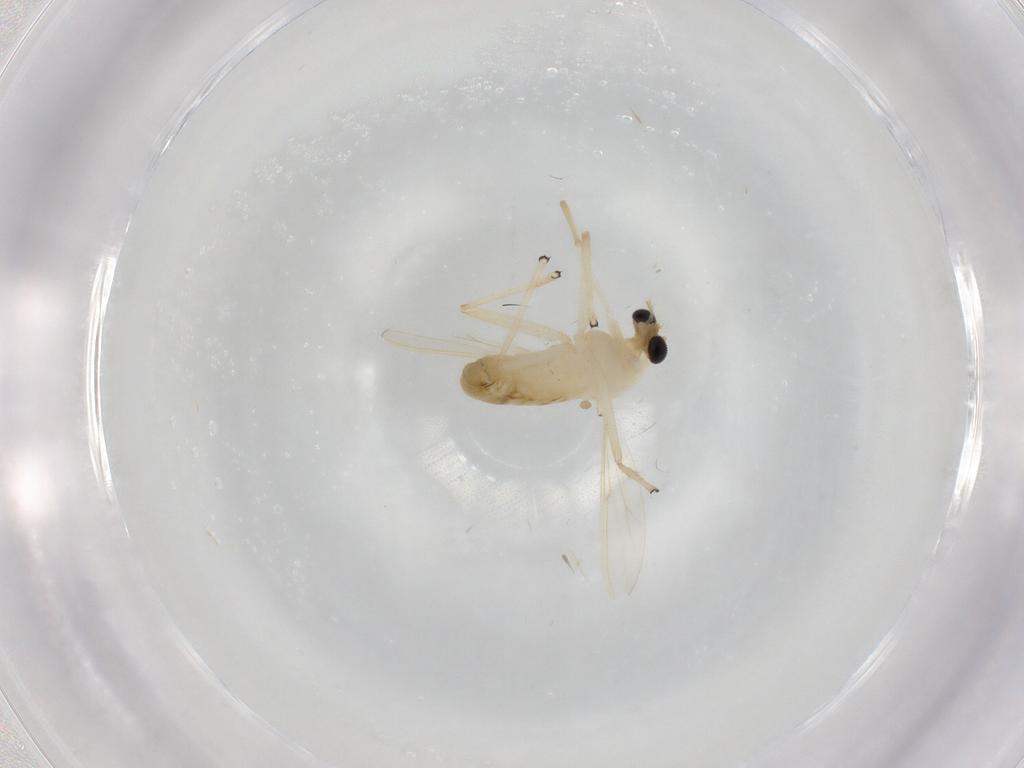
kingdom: Animalia
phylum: Arthropoda
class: Insecta
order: Diptera
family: Chironomidae
